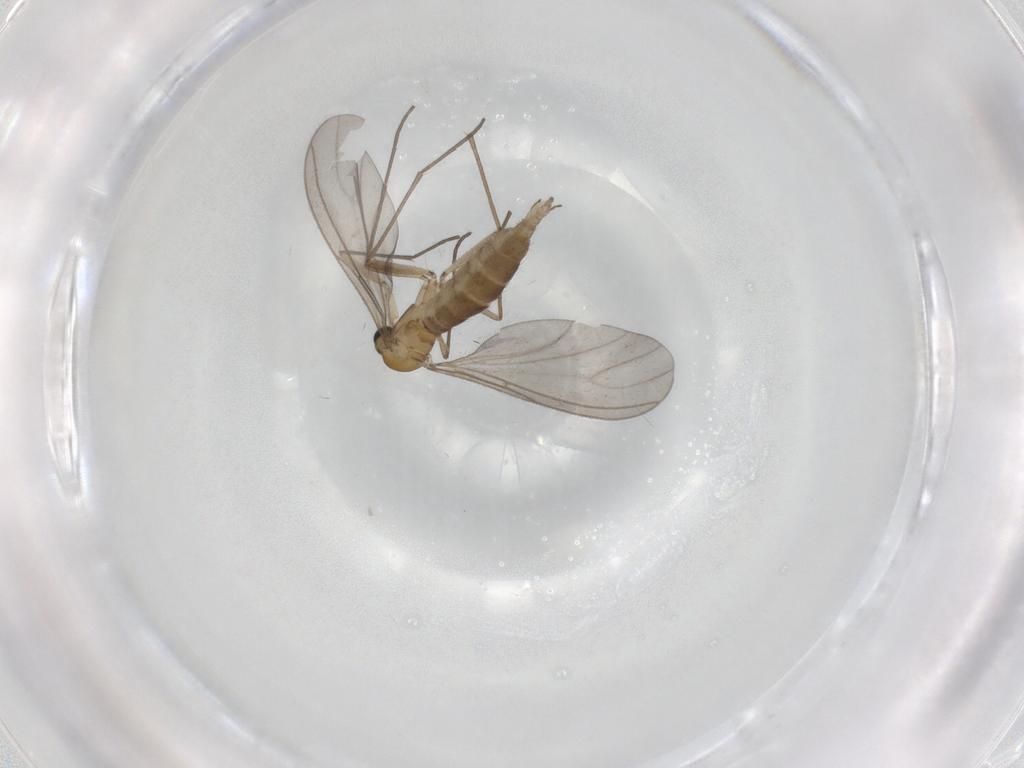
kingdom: Animalia
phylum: Arthropoda
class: Insecta
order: Diptera
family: Sciaridae
